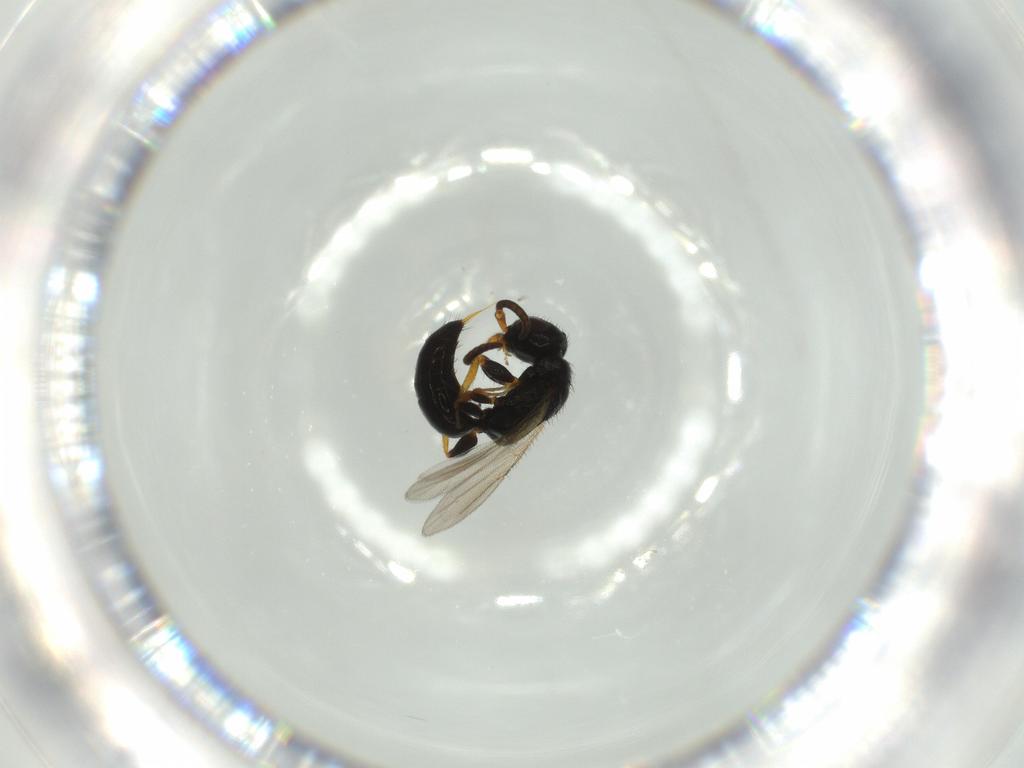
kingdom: Animalia
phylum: Arthropoda
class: Insecta
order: Hymenoptera
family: Bethylidae
